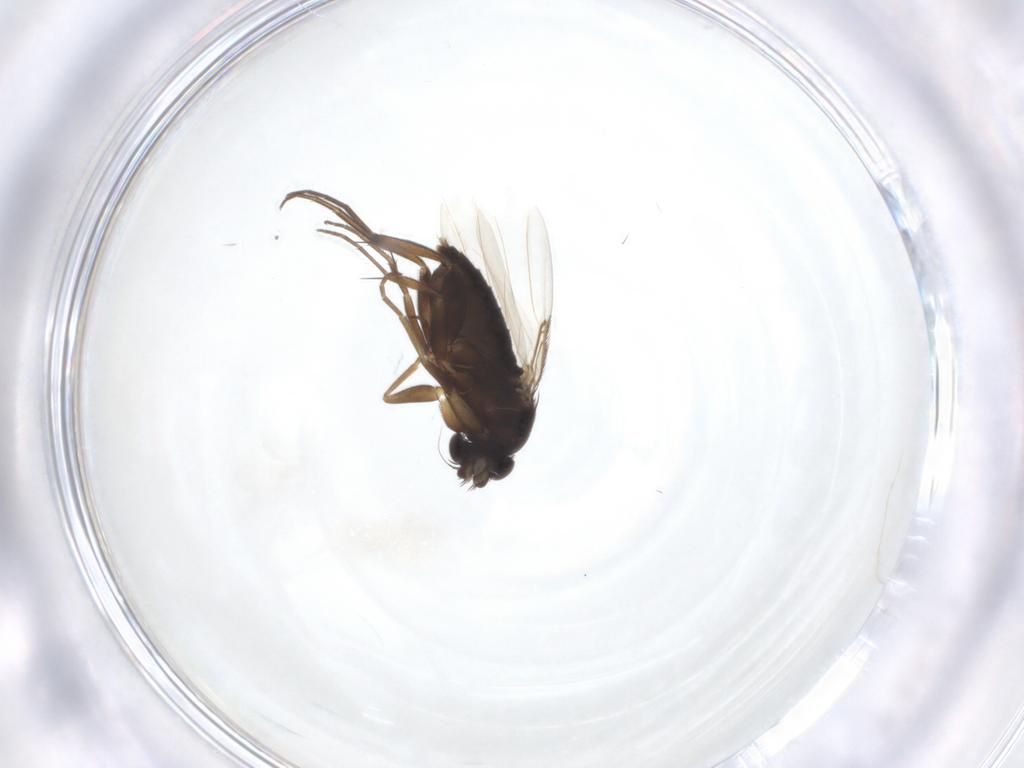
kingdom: Animalia
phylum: Arthropoda
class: Insecta
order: Diptera
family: Phoridae
